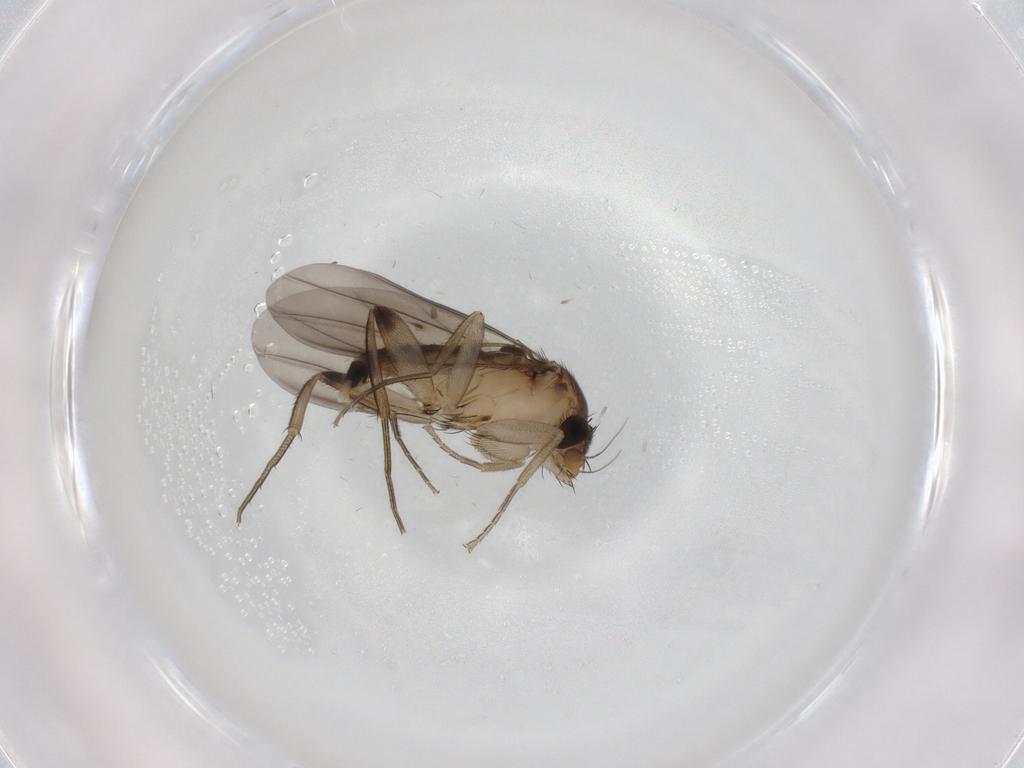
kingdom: Animalia
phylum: Arthropoda
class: Insecta
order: Diptera
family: Phoridae
